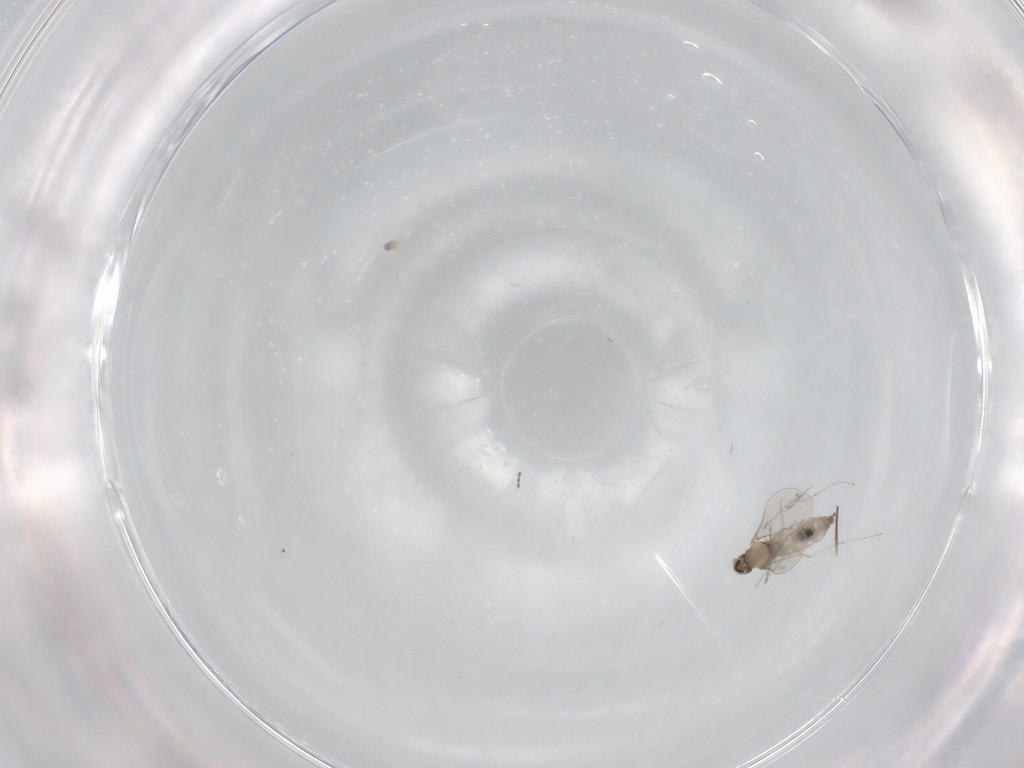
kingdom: Animalia
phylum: Arthropoda
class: Insecta
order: Diptera
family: Cecidomyiidae
